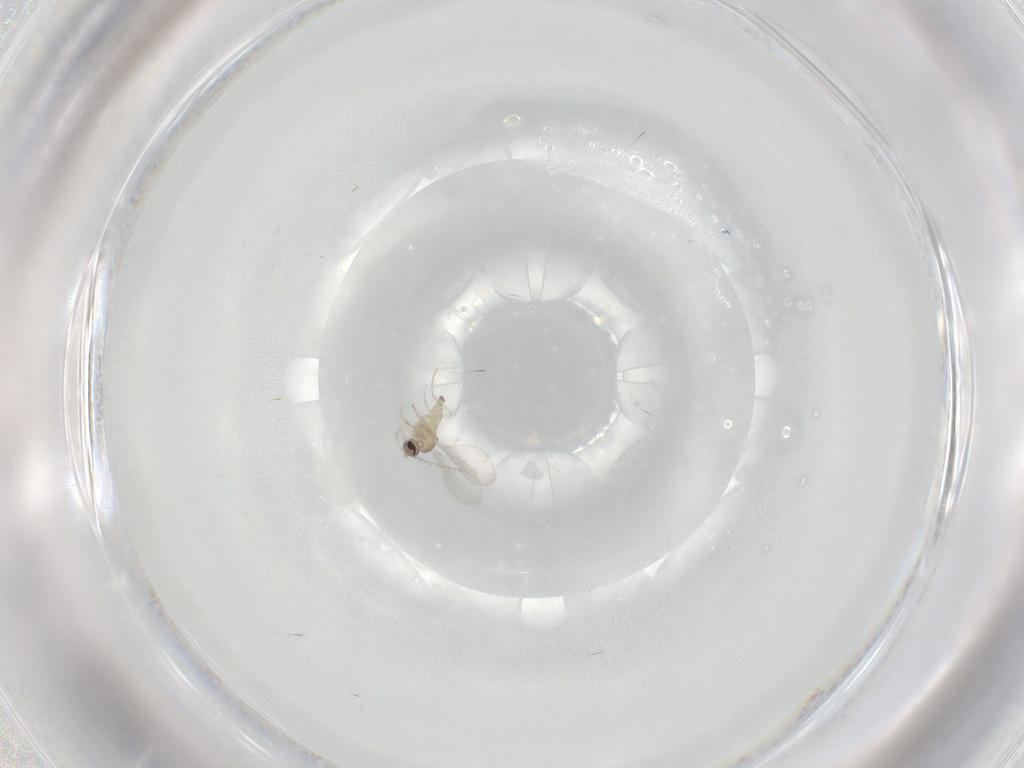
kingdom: Animalia
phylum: Arthropoda
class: Insecta
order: Diptera
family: Cecidomyiidae
